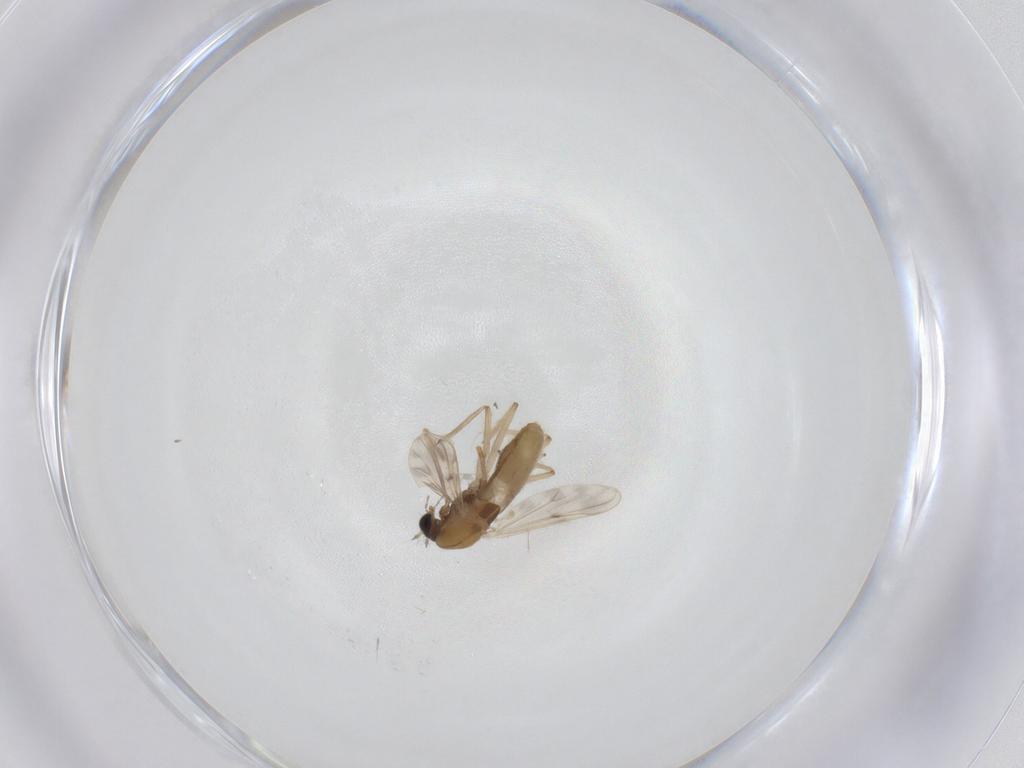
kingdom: Animalia
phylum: Arthropoda
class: Insecta
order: Diptera
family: Chironomidae
